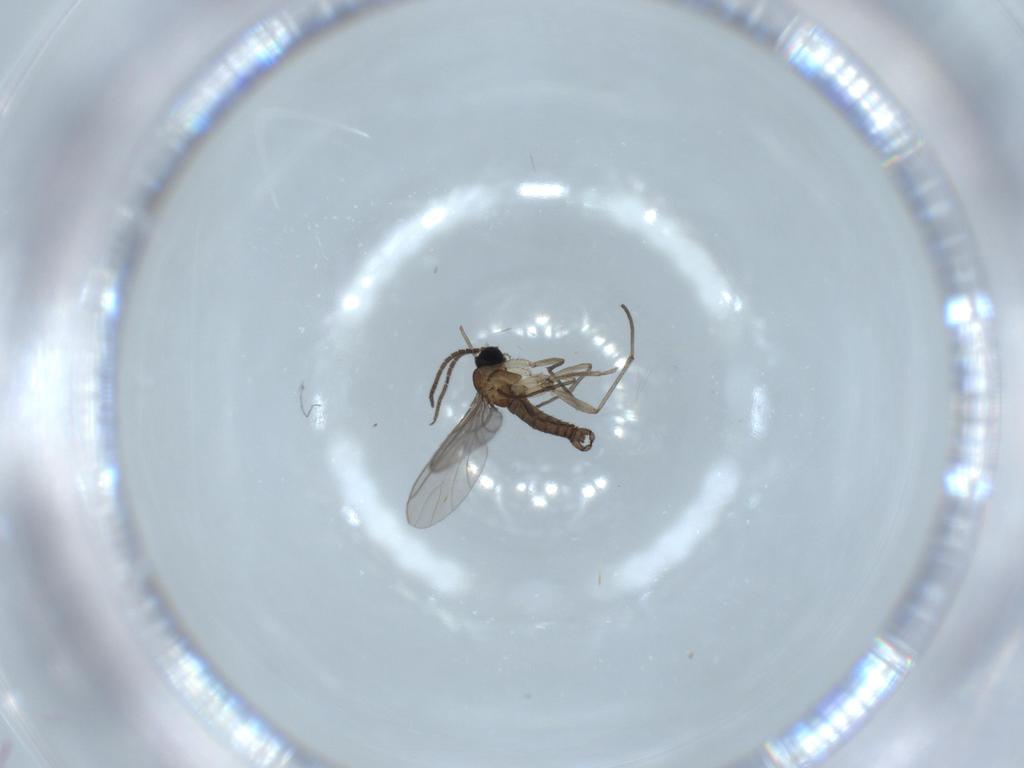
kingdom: Animalia
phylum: Arthropoda
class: Insecta
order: Diptera
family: Sciaridae
